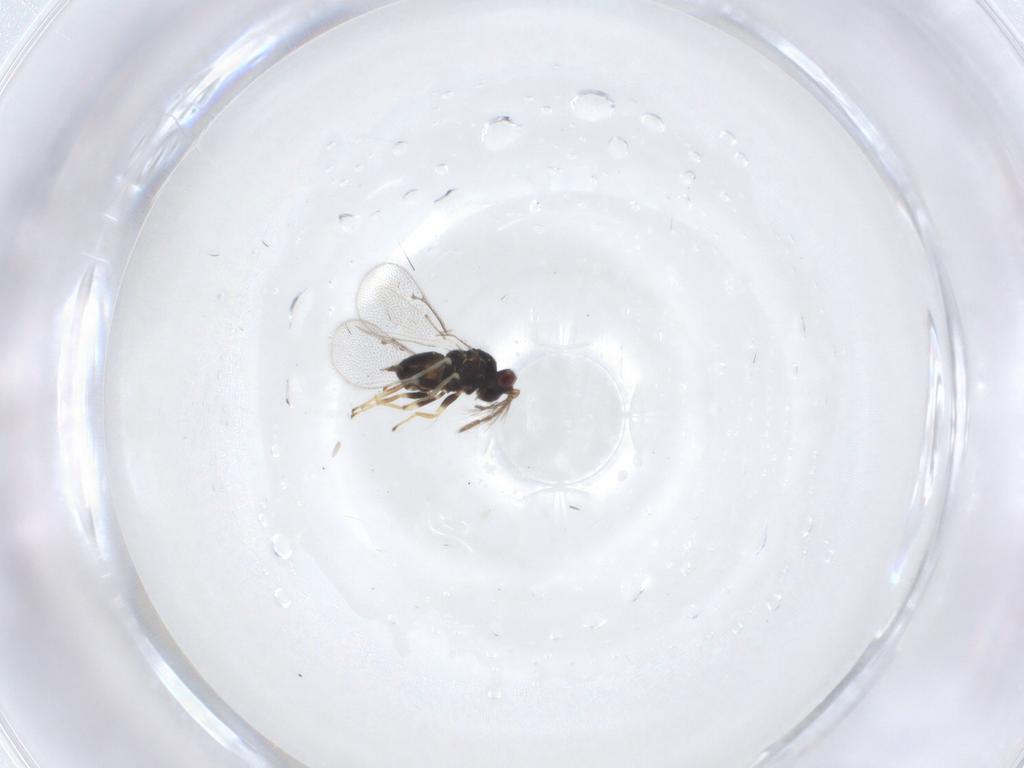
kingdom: Animalia
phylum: Arthropoda
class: Insecta
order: Hymenoptera
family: Eulophidae
